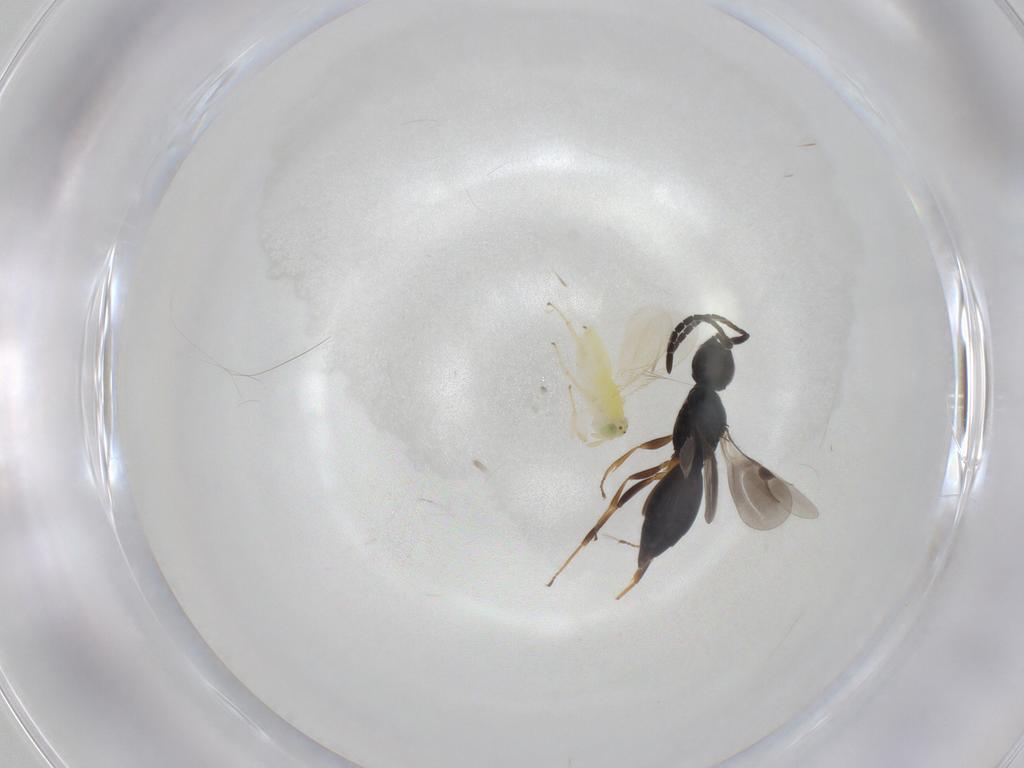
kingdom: Animalia
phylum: Arthropoda
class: Insecta
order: Hymenoptera
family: Aphelinidae
